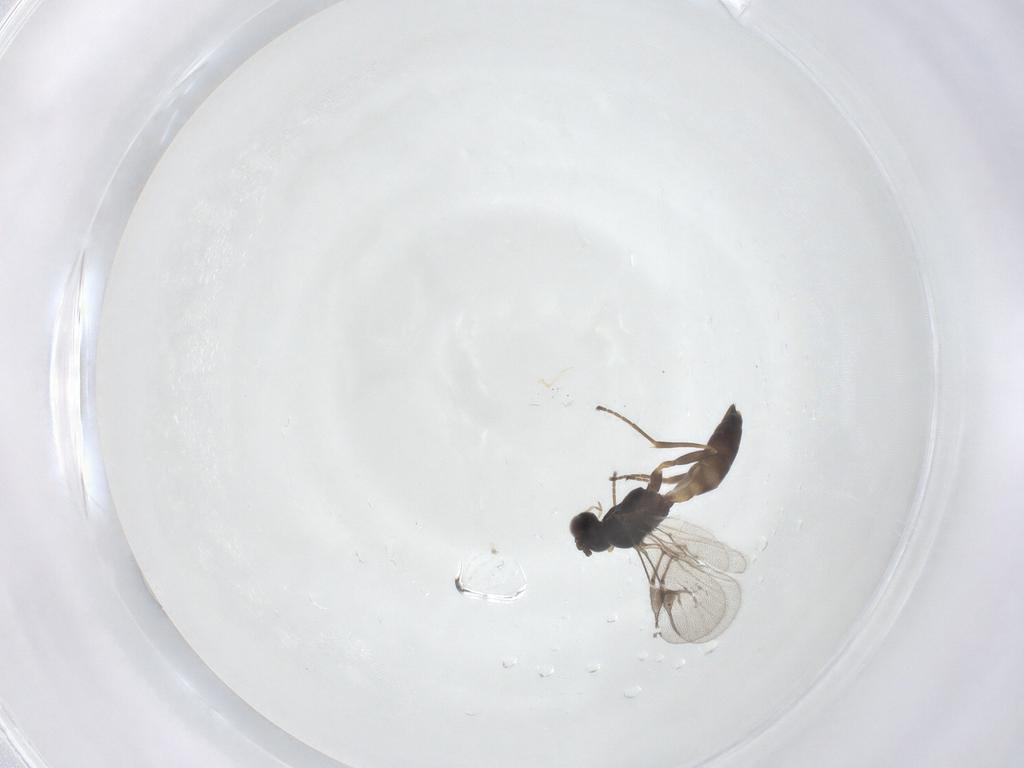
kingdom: Animalia
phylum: Arthropoda
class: Insecta
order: Hymenoptera
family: Braconidae
